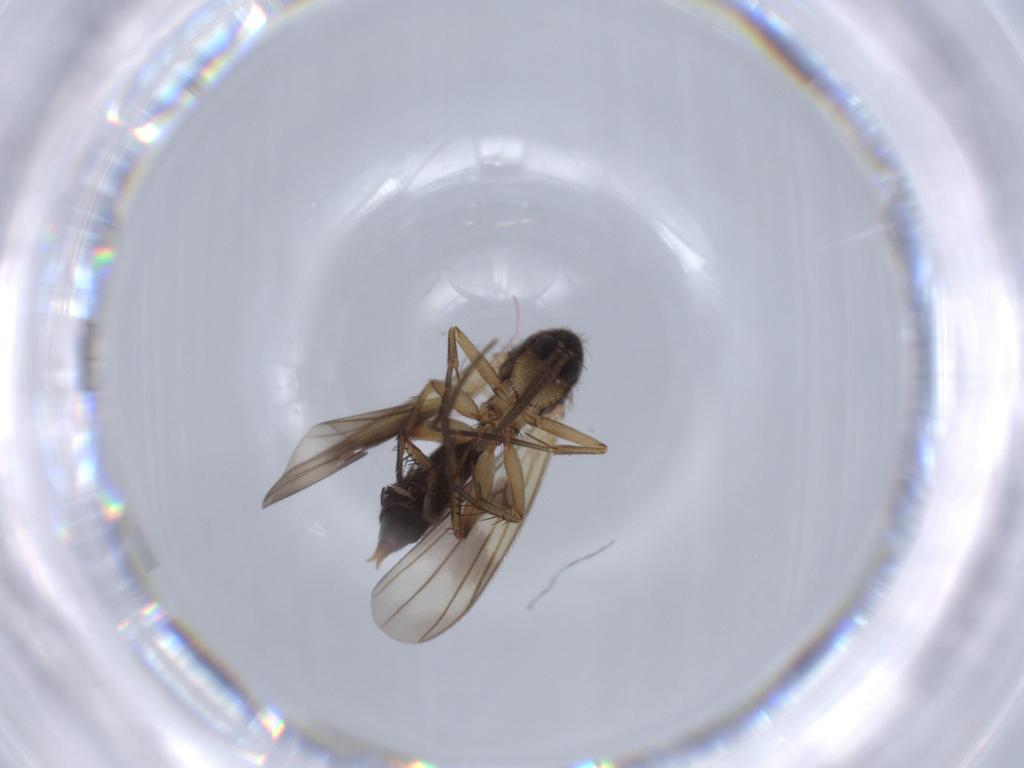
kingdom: Animalia
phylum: Arthropoda
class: Insecta
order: Diptera
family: Phoridae
